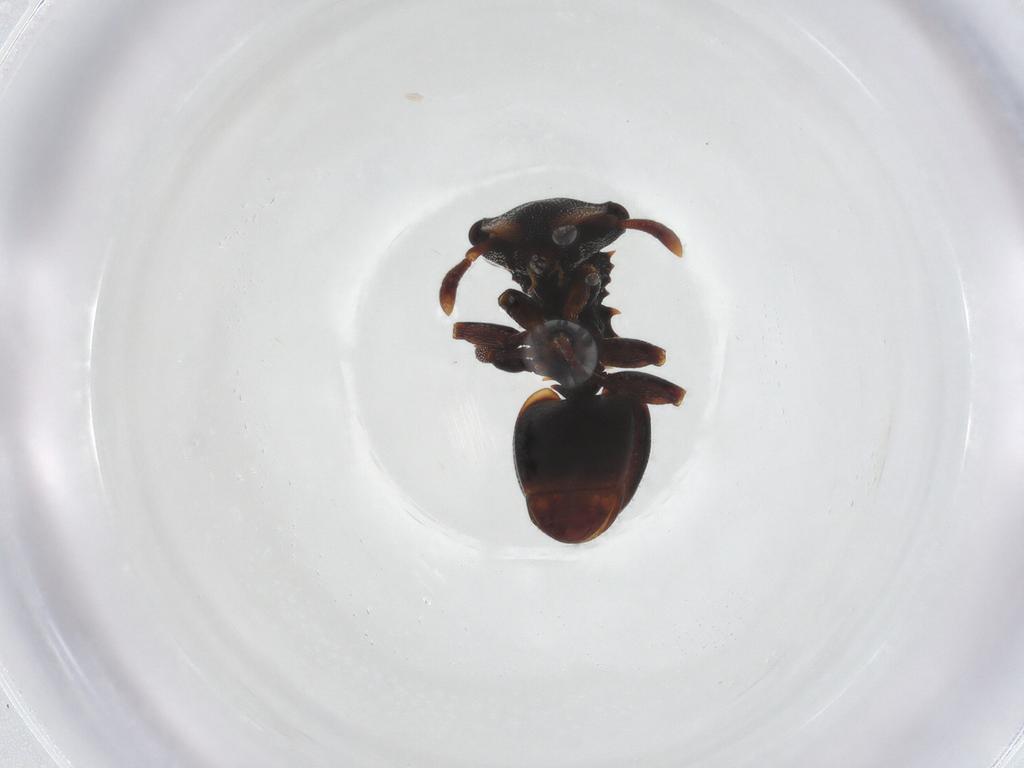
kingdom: Animalia
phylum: Arthropoda
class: Insecta
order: Hymenoptera
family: Formicidae
